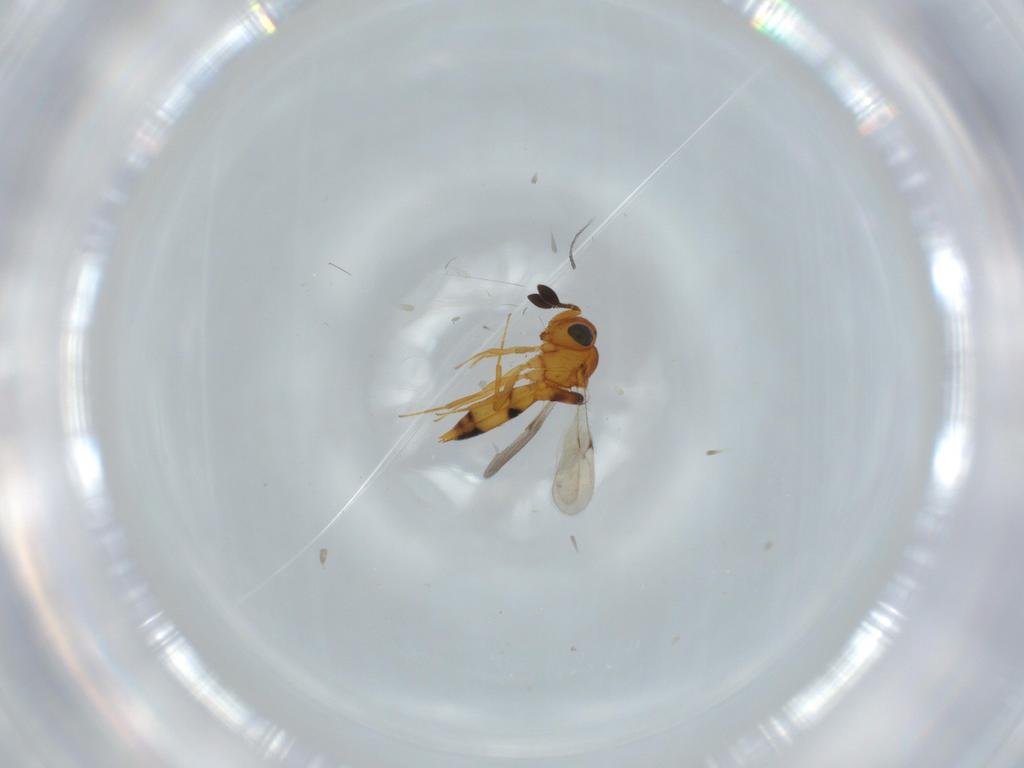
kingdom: Animalia
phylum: Arthropoda
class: Insecta
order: Hymenoptera
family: Scelionidae
